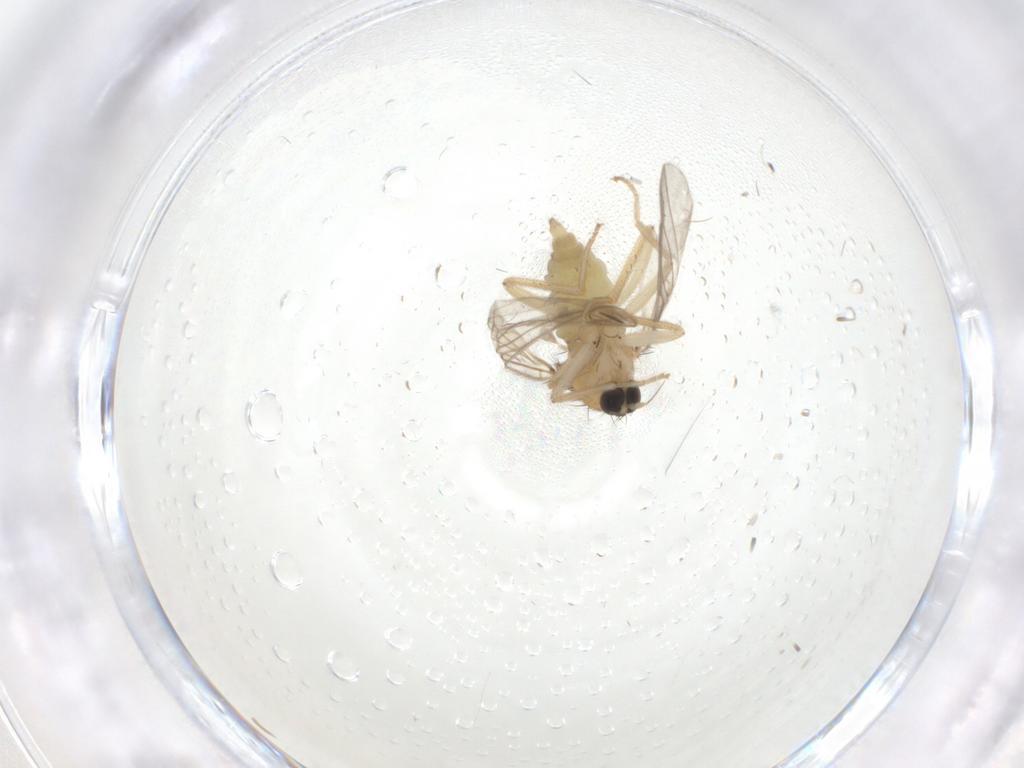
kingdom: Animalia
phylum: Arthropoda
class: Insecta
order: Diptera
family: Hybotidae
